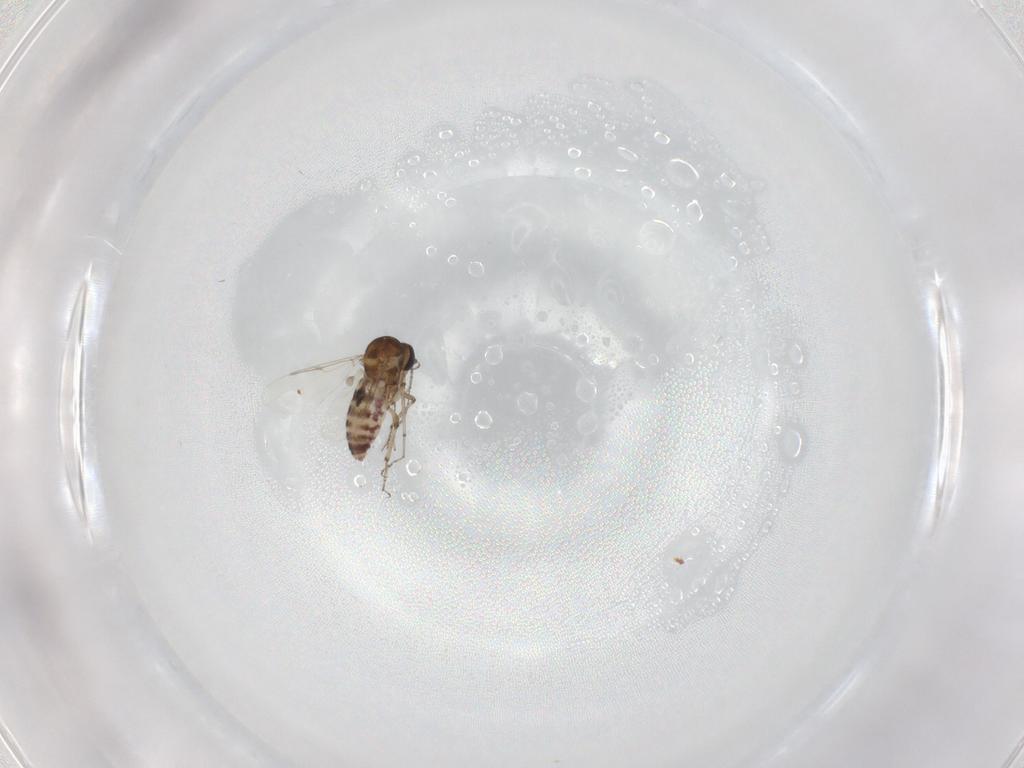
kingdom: Animalia
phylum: Arthropoda
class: Insecta
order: Diptera
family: Ceratopogonidae
